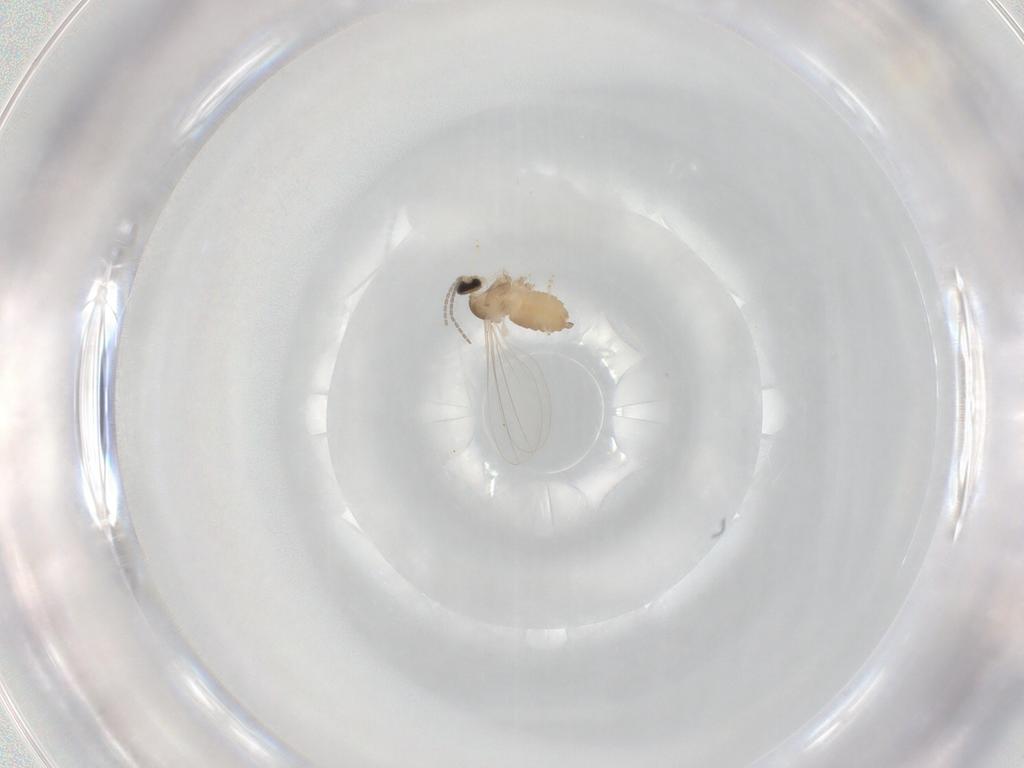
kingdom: Animalia
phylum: Arthropoda
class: Insecta
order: Diptera
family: Cecidomyiidae
